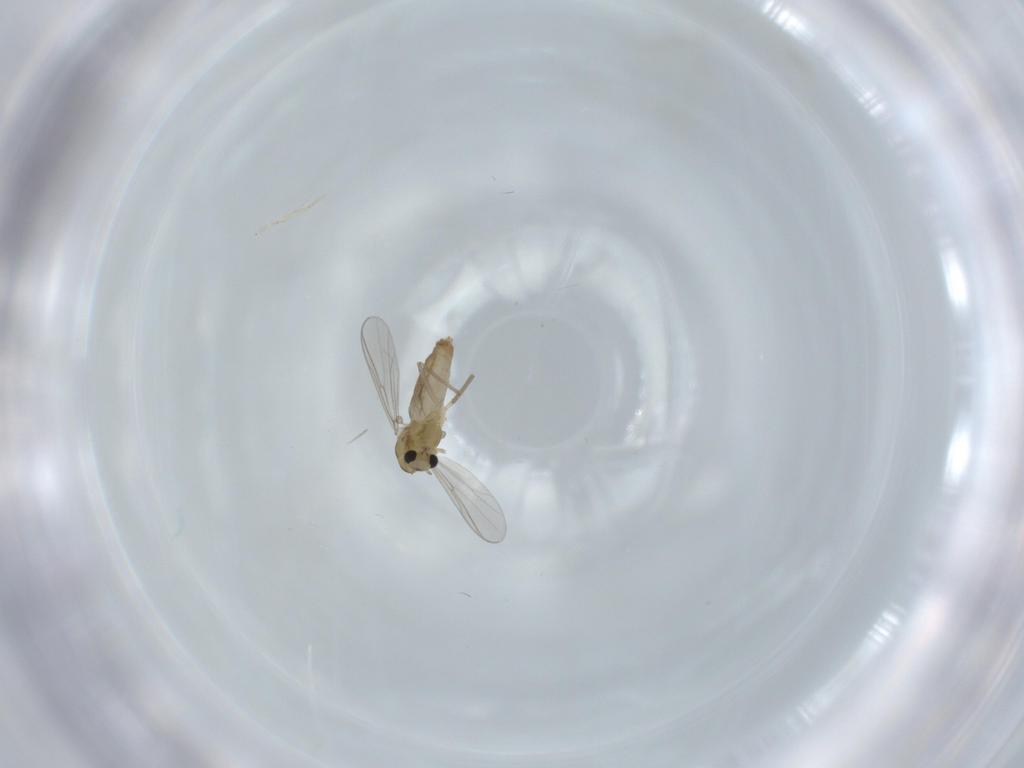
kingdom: Animalia
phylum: Arthropoda
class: Insecta
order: Diptera
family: Chironomidae
